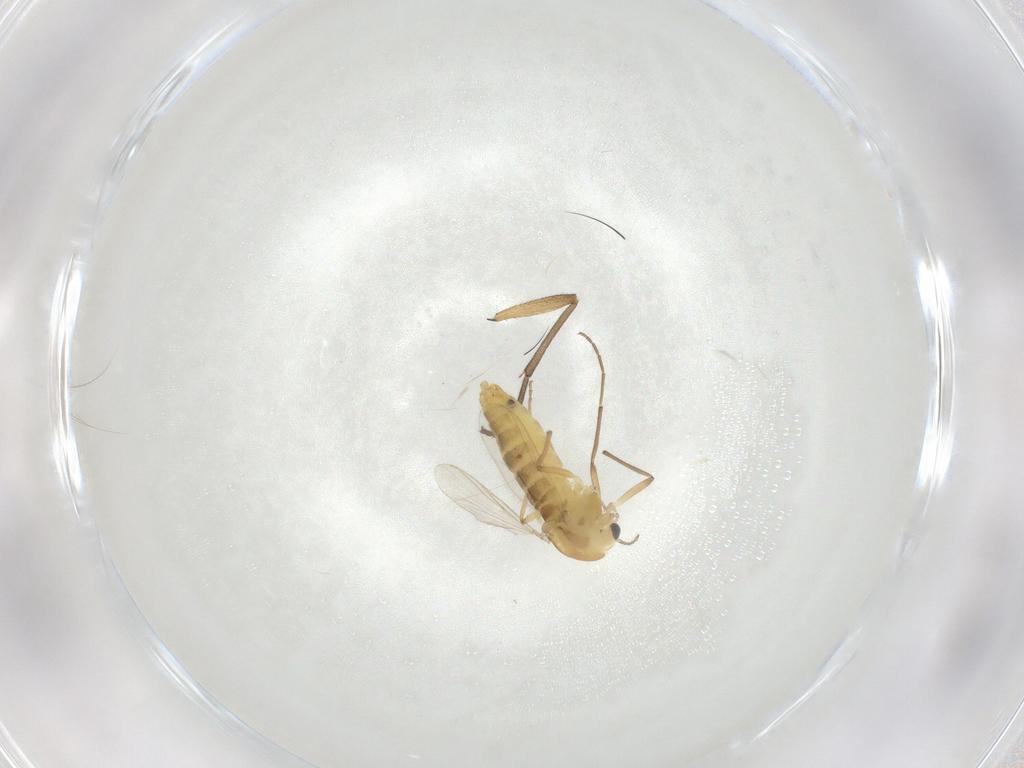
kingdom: Animalia
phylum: Arthropoda
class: Insecta
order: Diptera
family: Chironomidae
